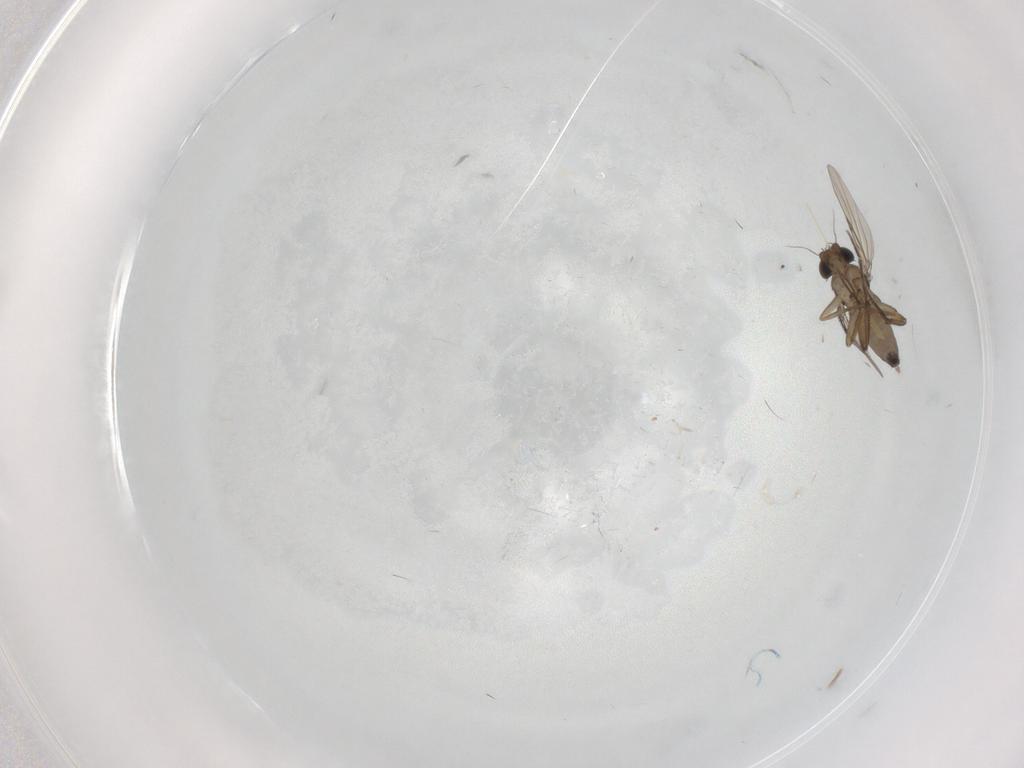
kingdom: Animalia
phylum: Arthropoda
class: Insecta
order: Diptera
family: Phoridae
